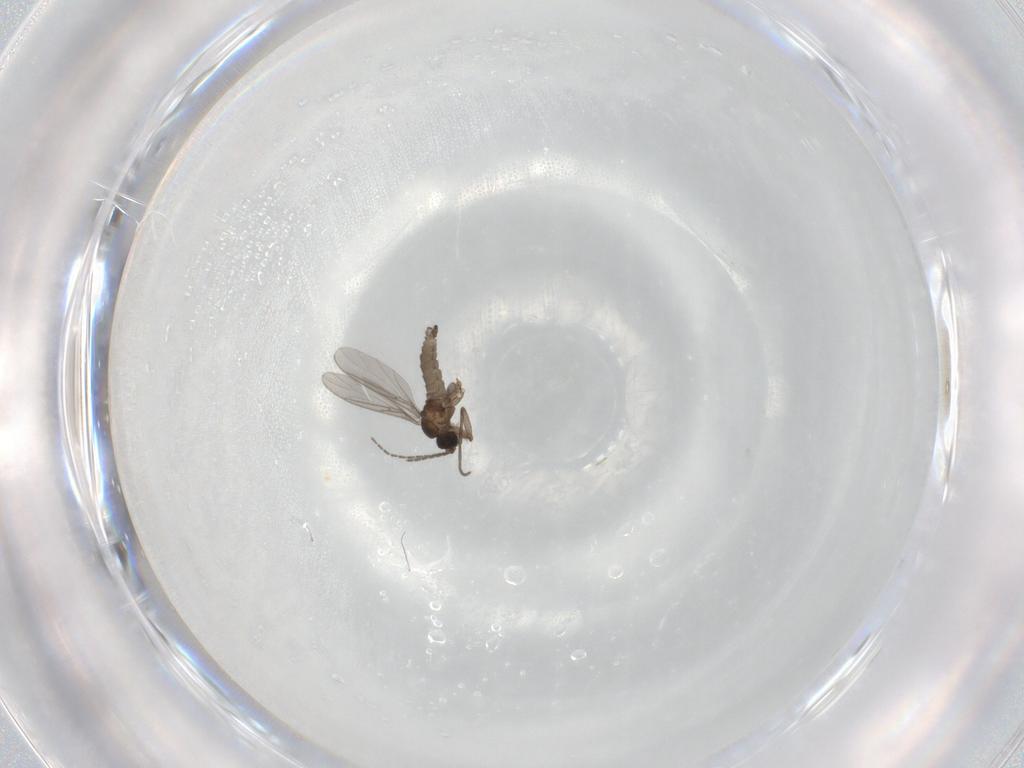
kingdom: Animalia
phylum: Arthropoda
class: Insecta
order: Diptera
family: Sciaridae
